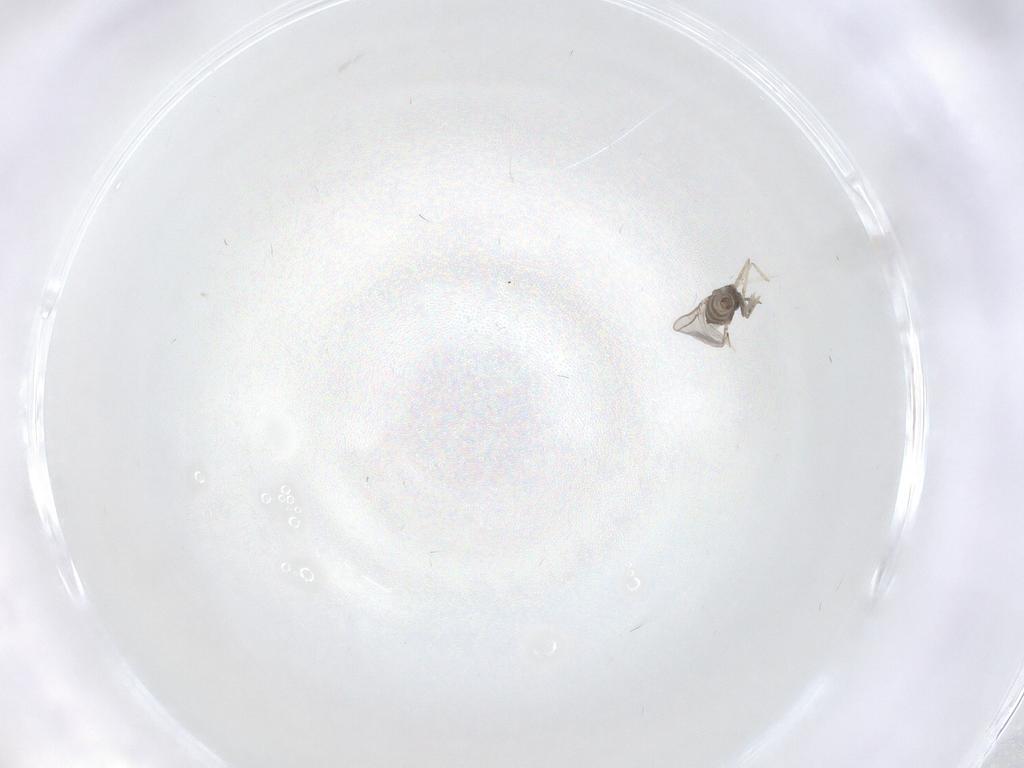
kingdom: Animalia
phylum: Arthropoda
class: Insecta
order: Diptera
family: Cecidomyiidae
